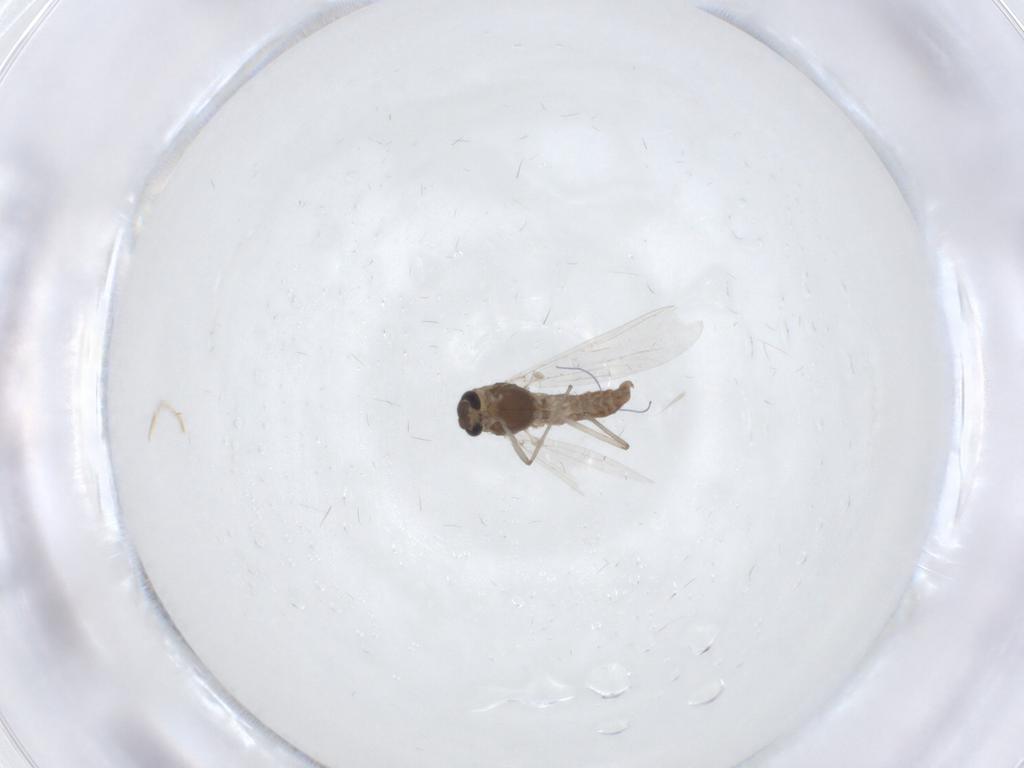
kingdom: Animalia
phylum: Arthropoda
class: Insecta
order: Diptera
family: Chironomidae
